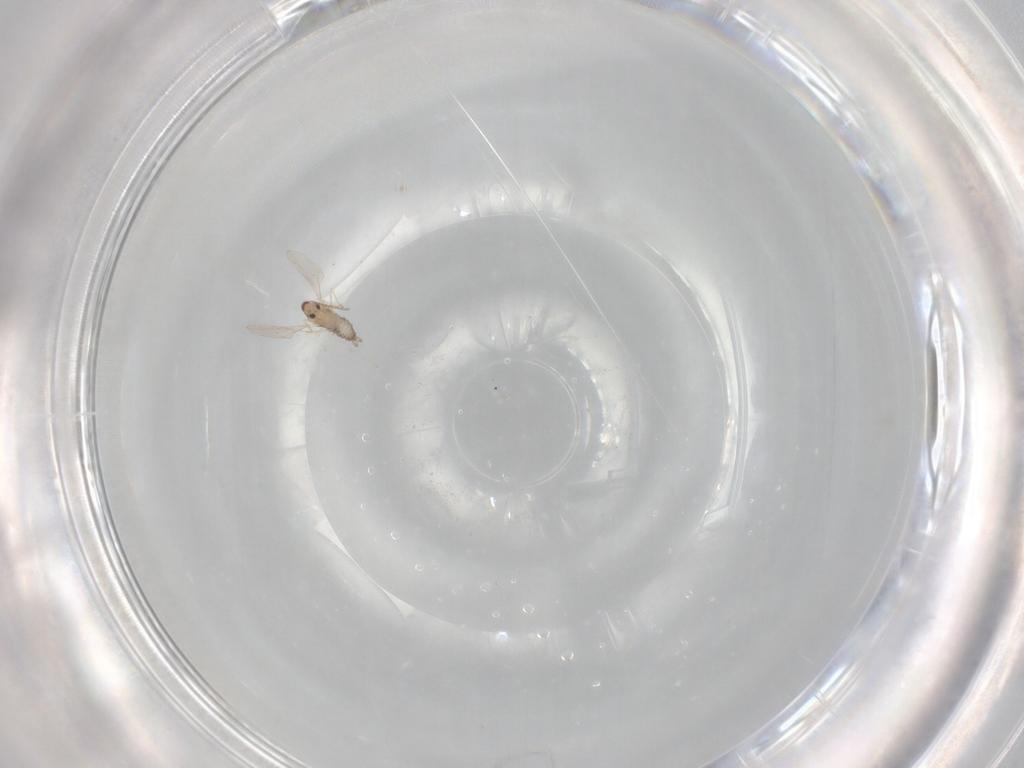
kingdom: Animalia
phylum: Arthropoda
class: Insecta
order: Diptera
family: Cecidomyiidae
